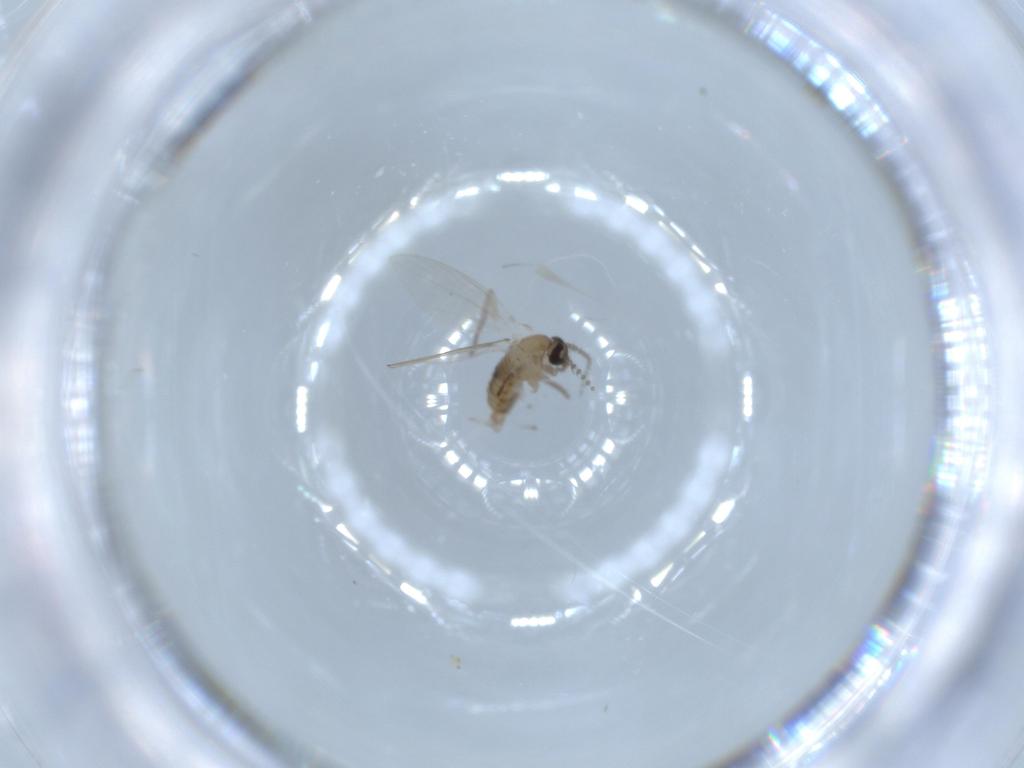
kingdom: Animalia
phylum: Arthropoda
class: Insecta
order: Diptera
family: Psychodidae
